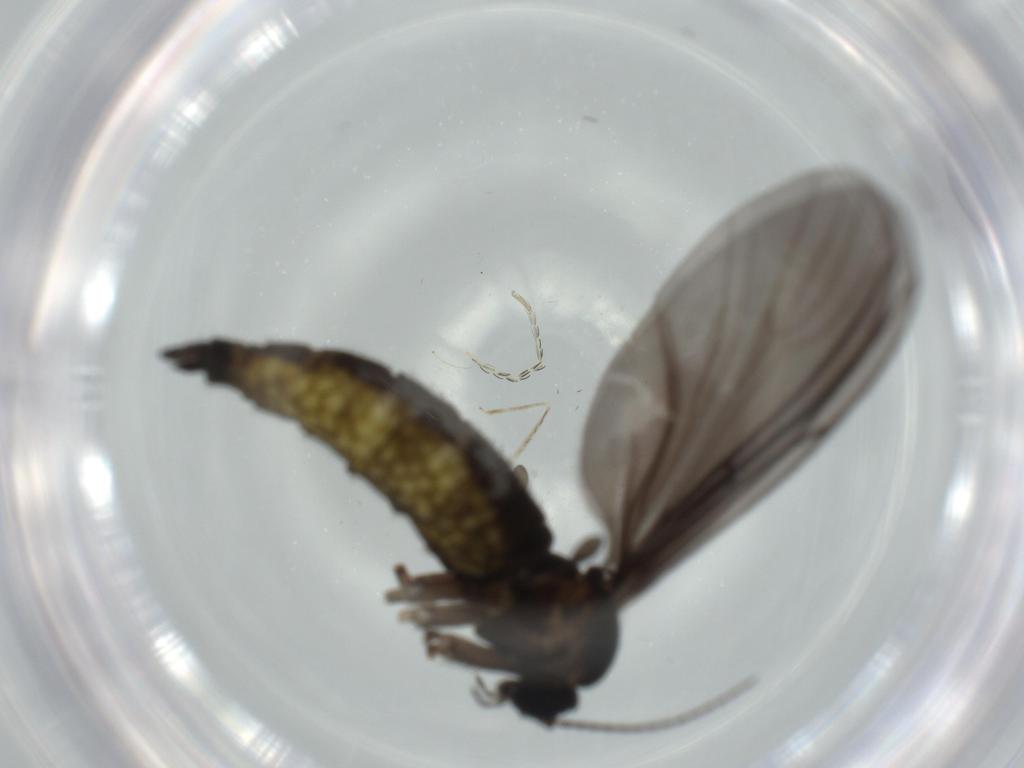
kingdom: Animalia
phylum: Arthropoda
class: Insecta
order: Diptera
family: Sciaridae
